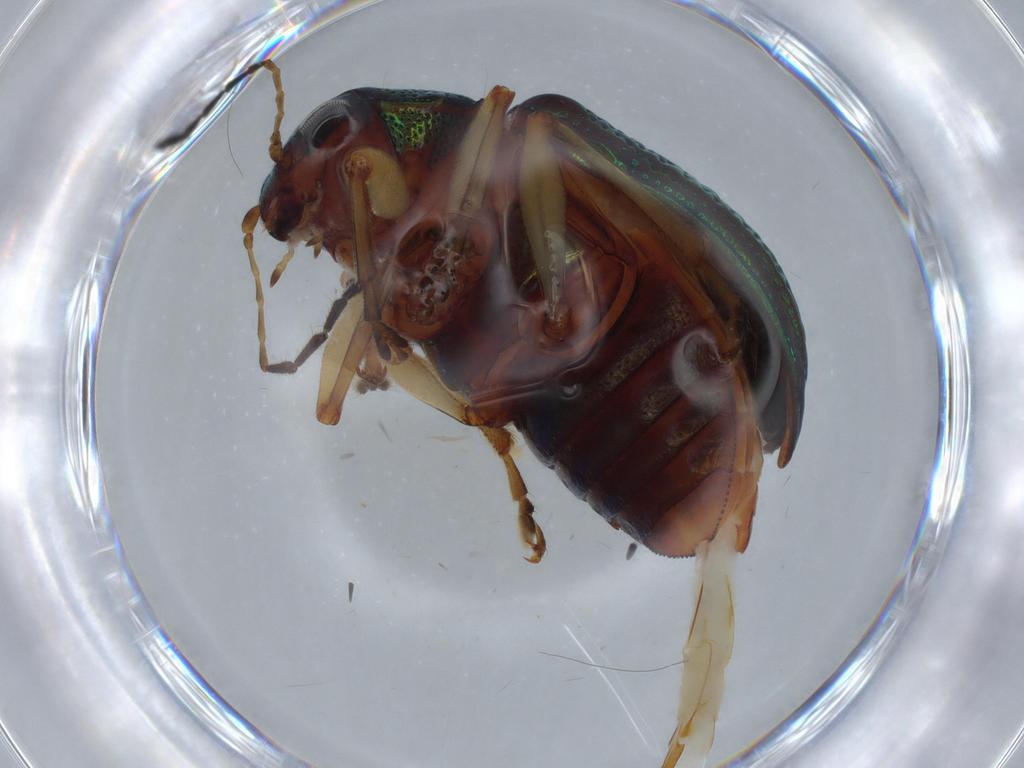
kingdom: Animalia
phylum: Arthropoda
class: Insecta
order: Coleoptera
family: Chrysomelidae
